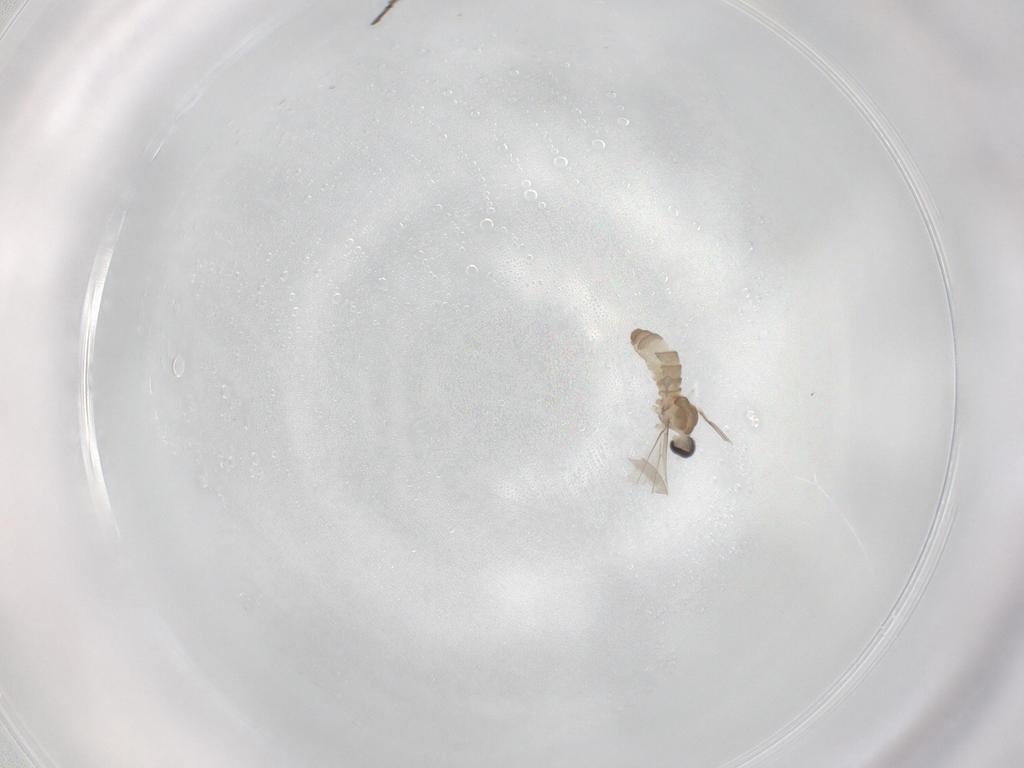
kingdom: Animalia
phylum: Arthropoda
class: Insecta
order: Diptera
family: Cecidomyiidae
